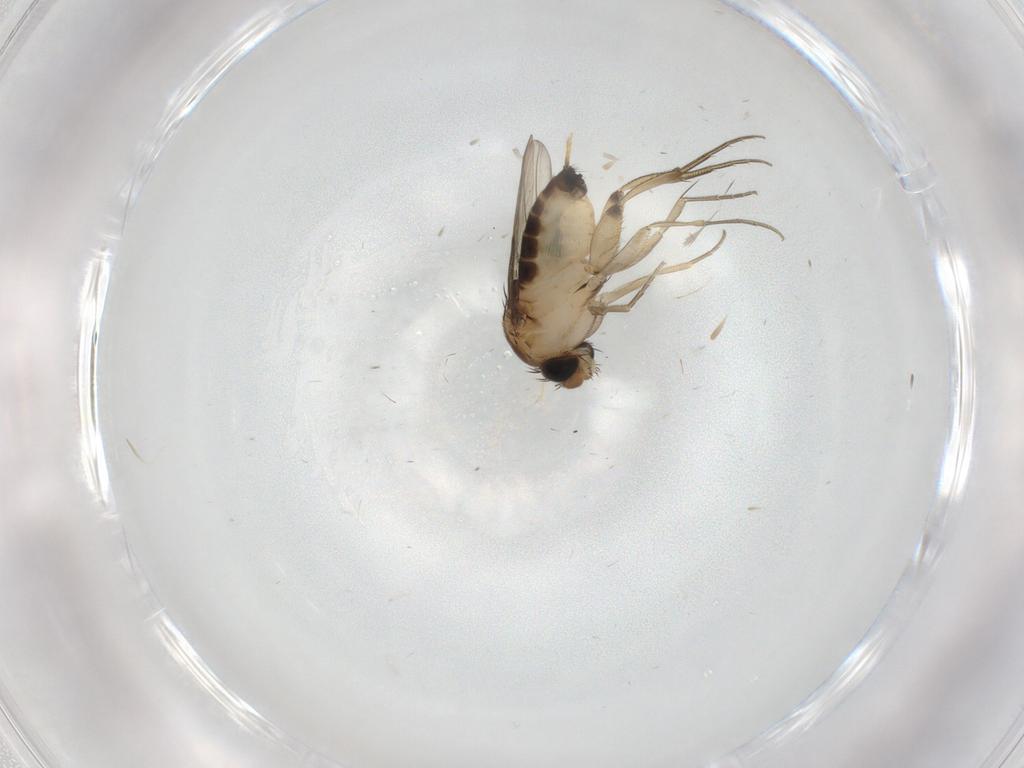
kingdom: Animalia
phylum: Arthropoda
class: Insecta
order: Diptera
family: Phoridae
